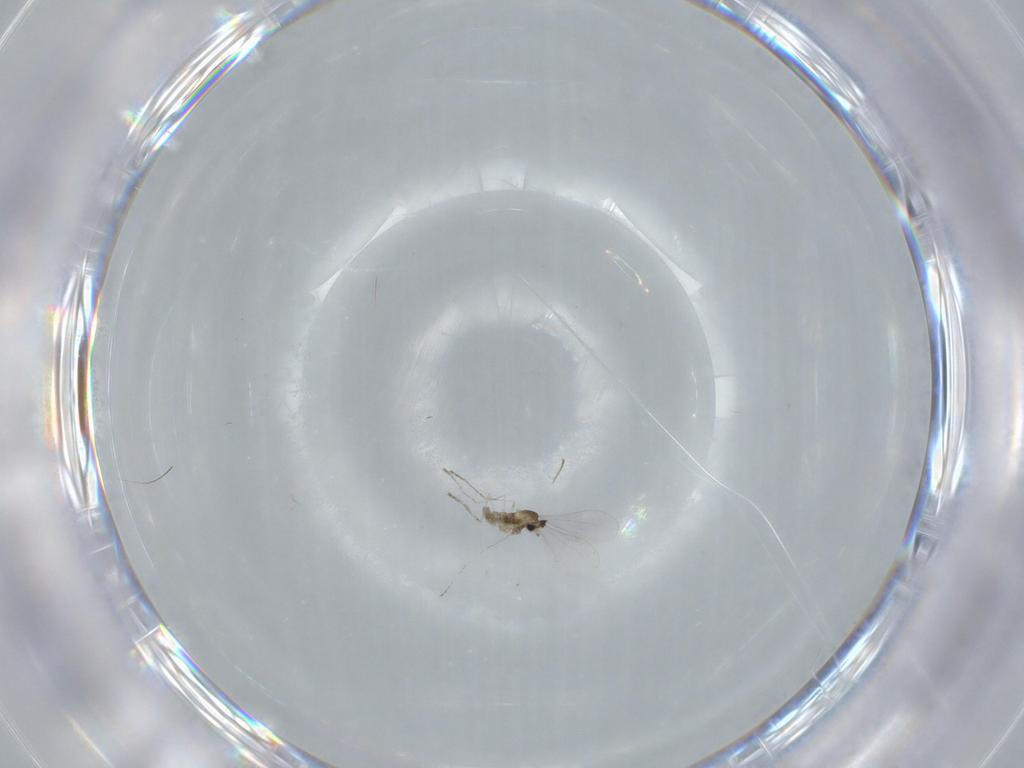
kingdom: Animalia
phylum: Arthropoda
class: Insecta
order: Diptera
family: Cecidomyiidae
